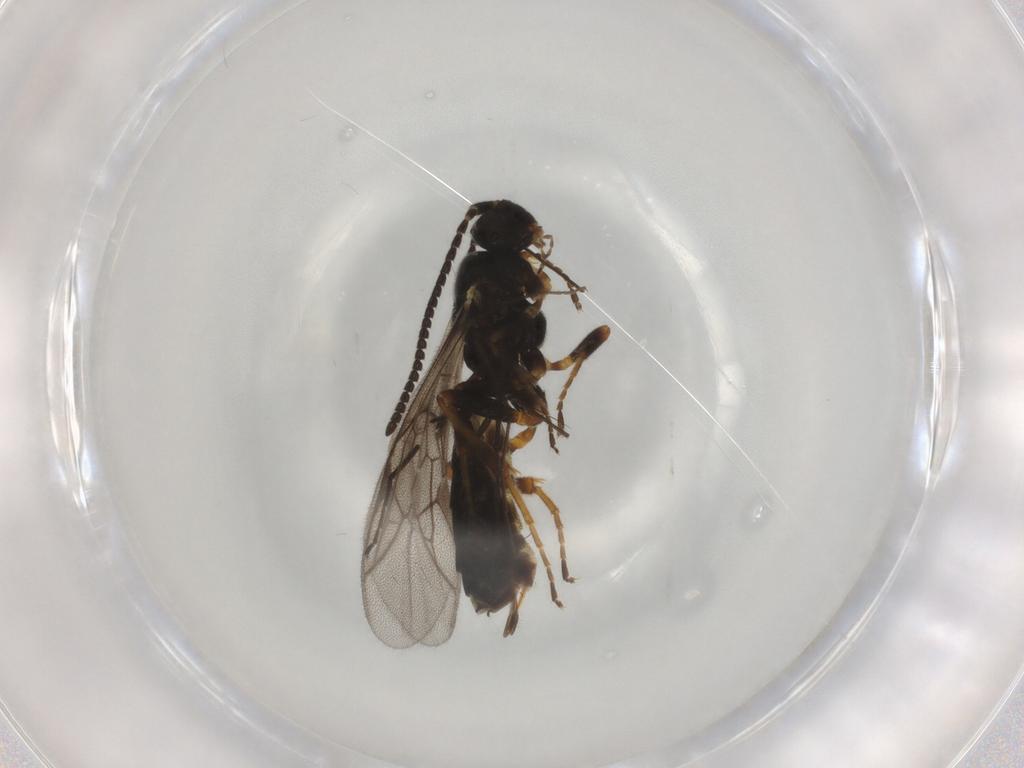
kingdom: Animalia
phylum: Arthropoda
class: Insecta
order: Hymenoptera
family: Ichneumonidae
